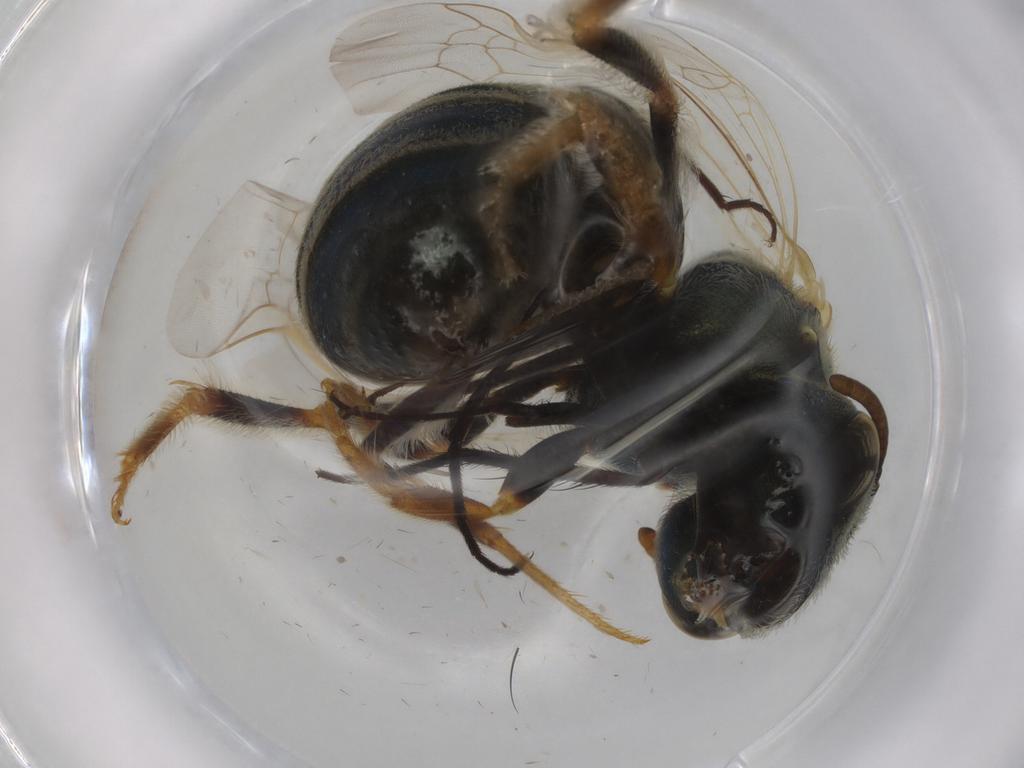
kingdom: Animalia
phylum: Arthropoda
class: Insecta
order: Hymenoptera
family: Halictidae
